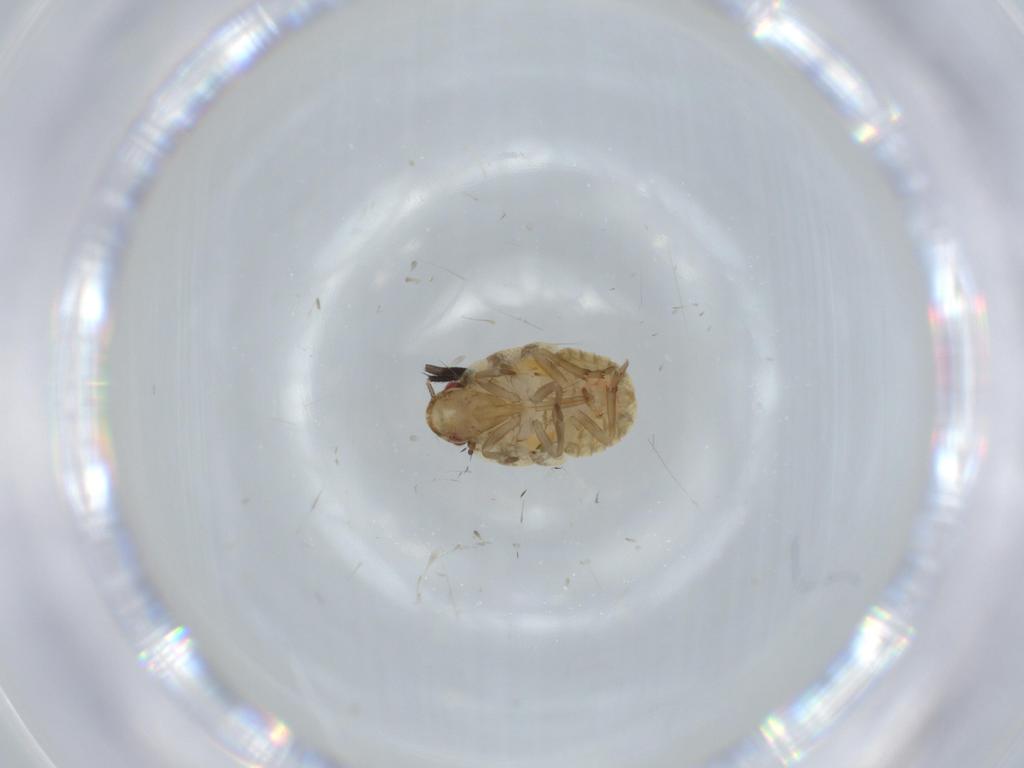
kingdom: Animalia
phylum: Arthropoda
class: Insecta
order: Hemiptera
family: Flatidae
